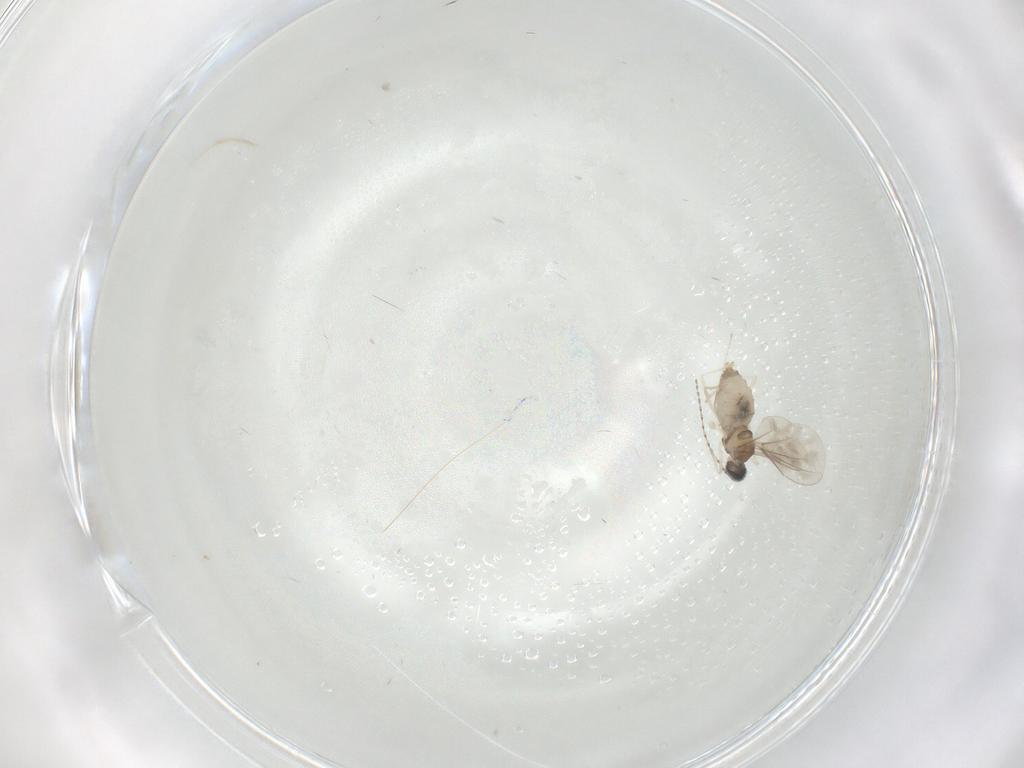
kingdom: Animalia
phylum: Arthropoda
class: Insecta
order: Diptera
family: Cecidomyiidae
